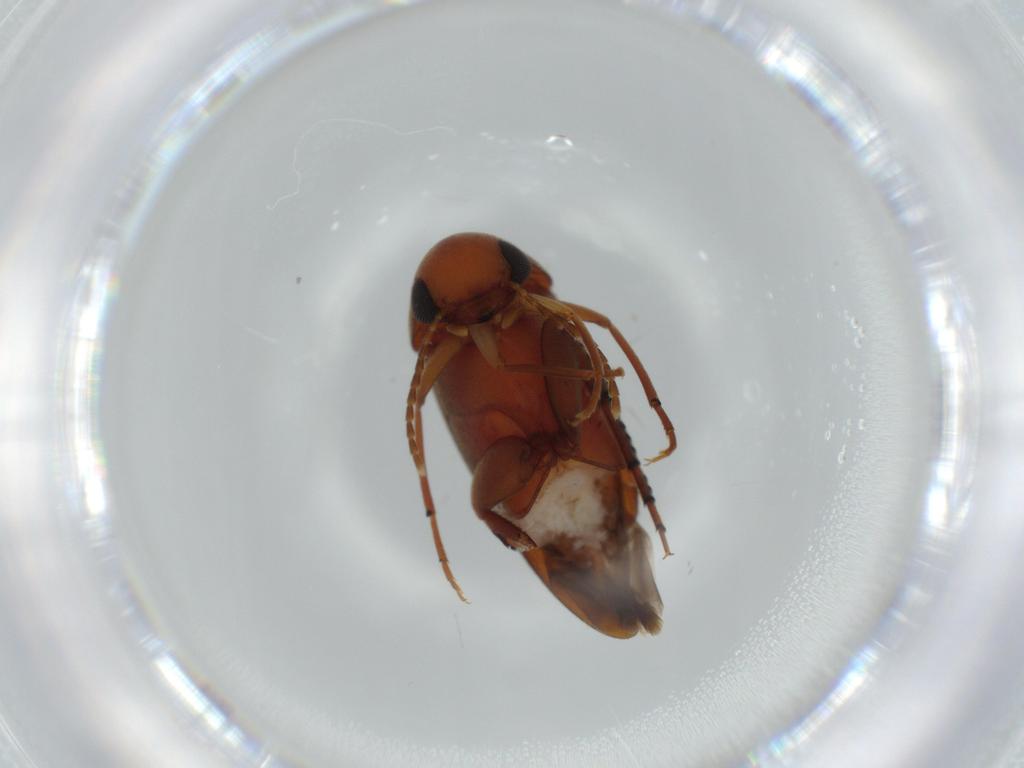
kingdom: Animalia
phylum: Arthropoda
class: Insecta
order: Coleoptera
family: Mordellidae
